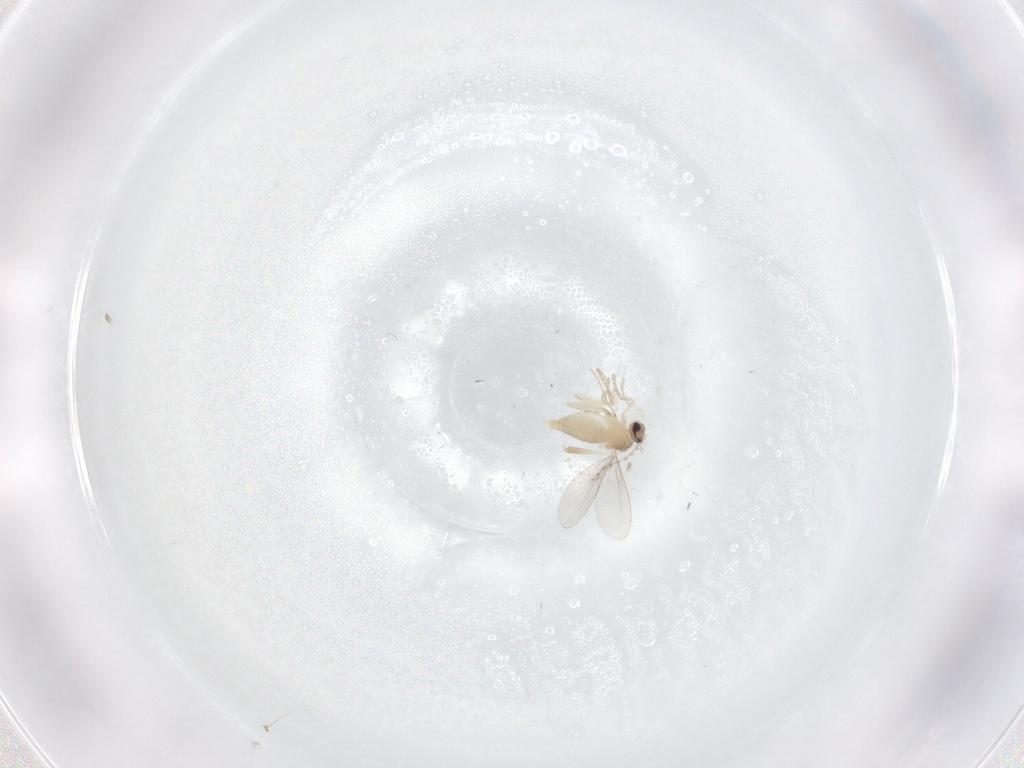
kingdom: Animalia
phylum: Arthropoda
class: Insecta
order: Diptera
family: Cecidomyiidae
